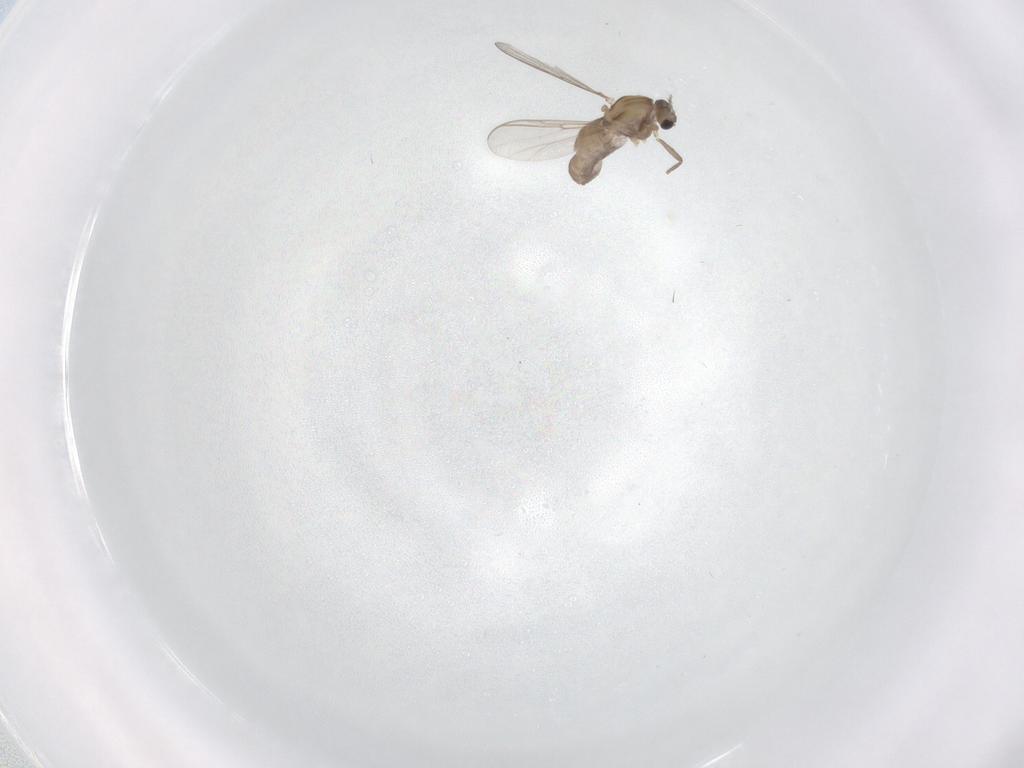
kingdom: Animalia
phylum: Arthropoda
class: Insecta
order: Diptera
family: Chironomidae
